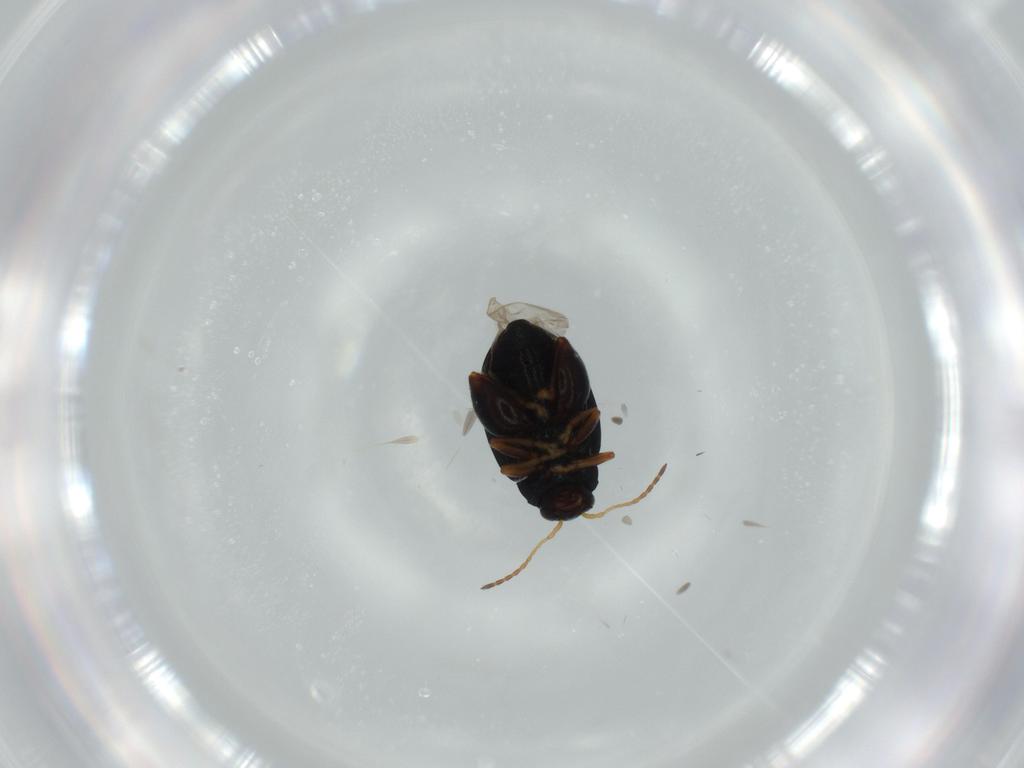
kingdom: Animalia
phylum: Arthropoda
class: Insecta
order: Coleoptera
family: Chrysomelidae
